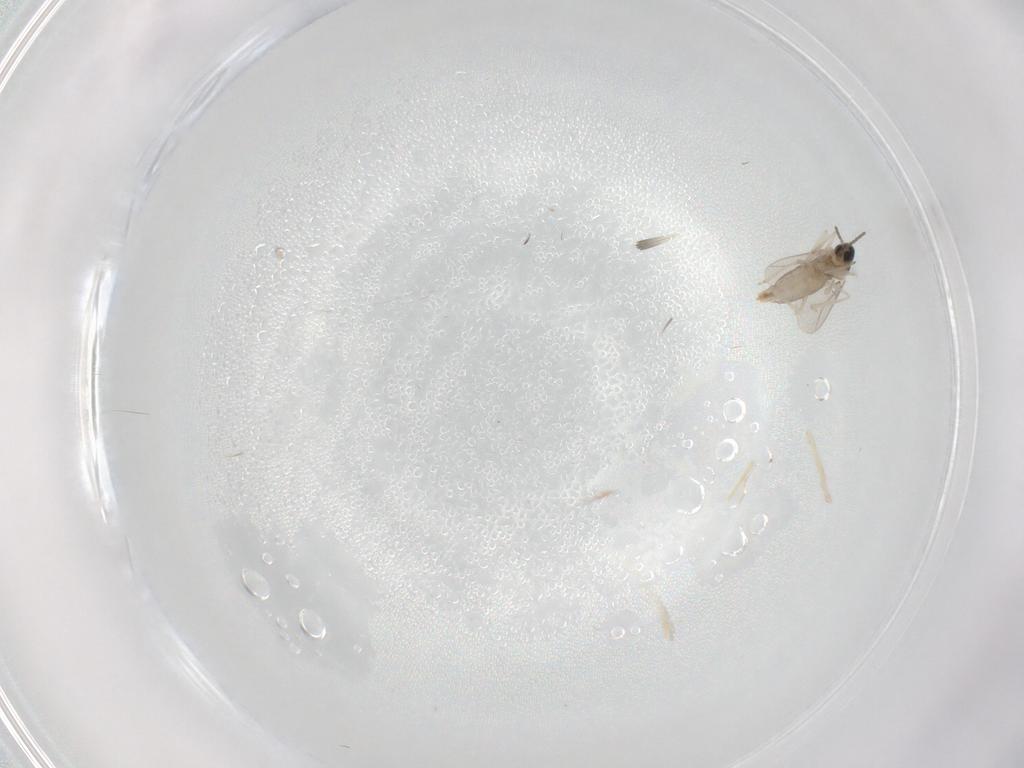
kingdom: Animalia
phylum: Arthropoda
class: Insecta
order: Diptera
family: Cecidomyiidae
